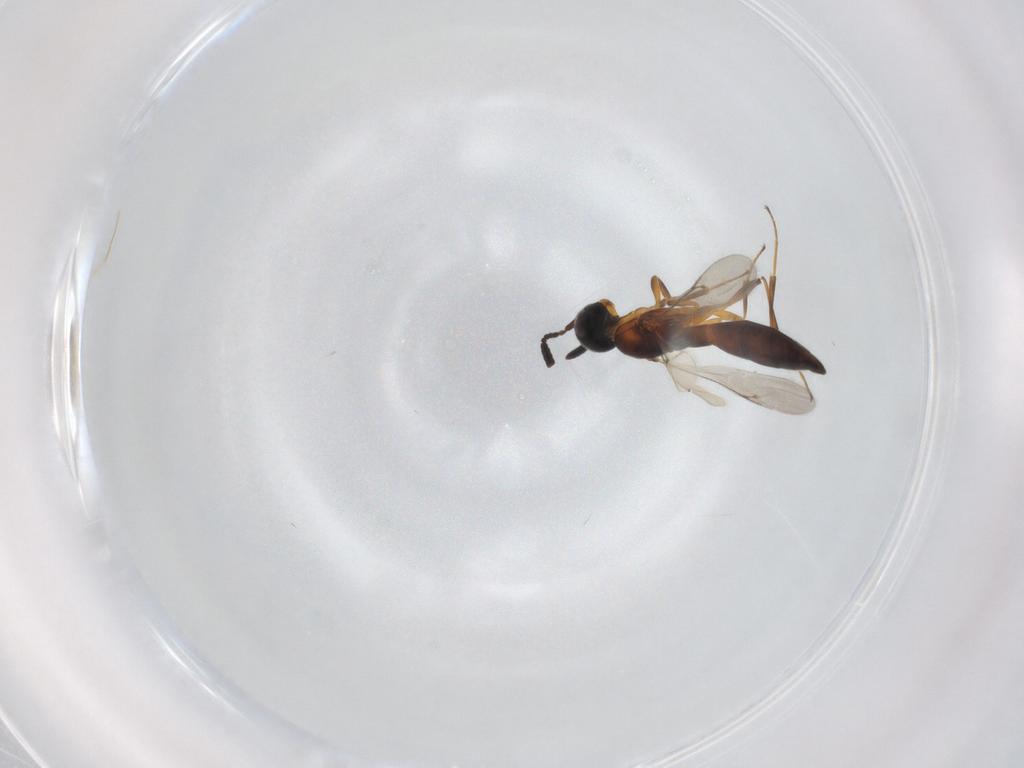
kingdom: Animalia
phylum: Arthropoda
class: Insecta
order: Hymenoptera
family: Scelionidae
